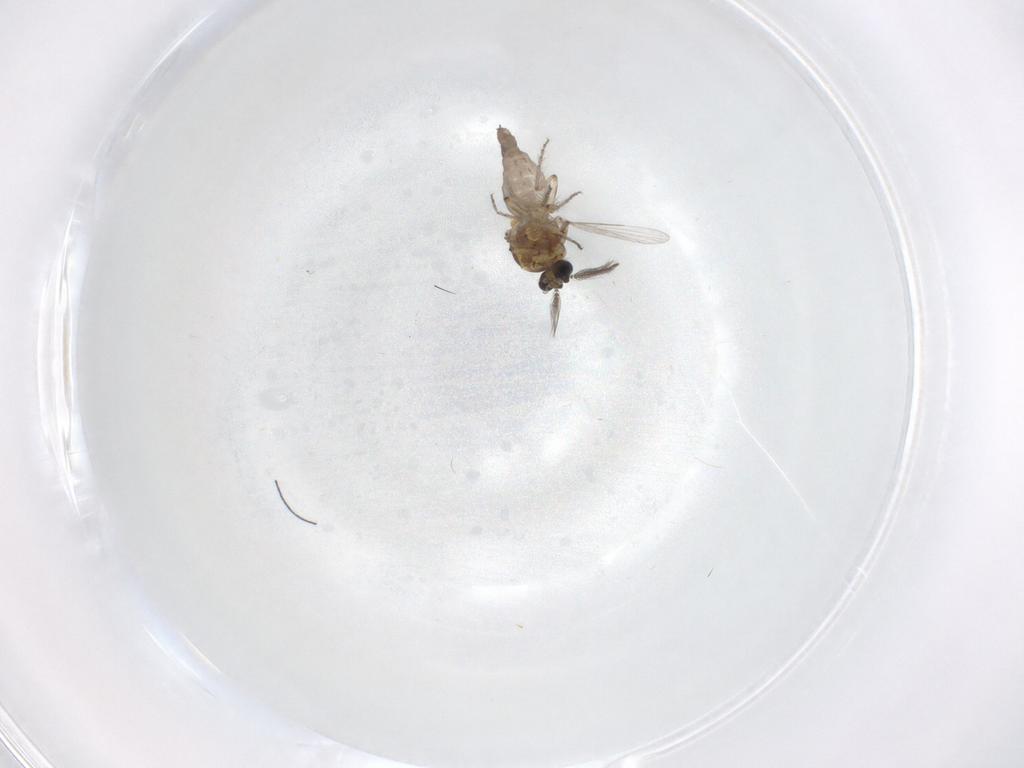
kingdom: Animalia
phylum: Arthropoda
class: Insecta
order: Diptera
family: Ceratopogonidae
